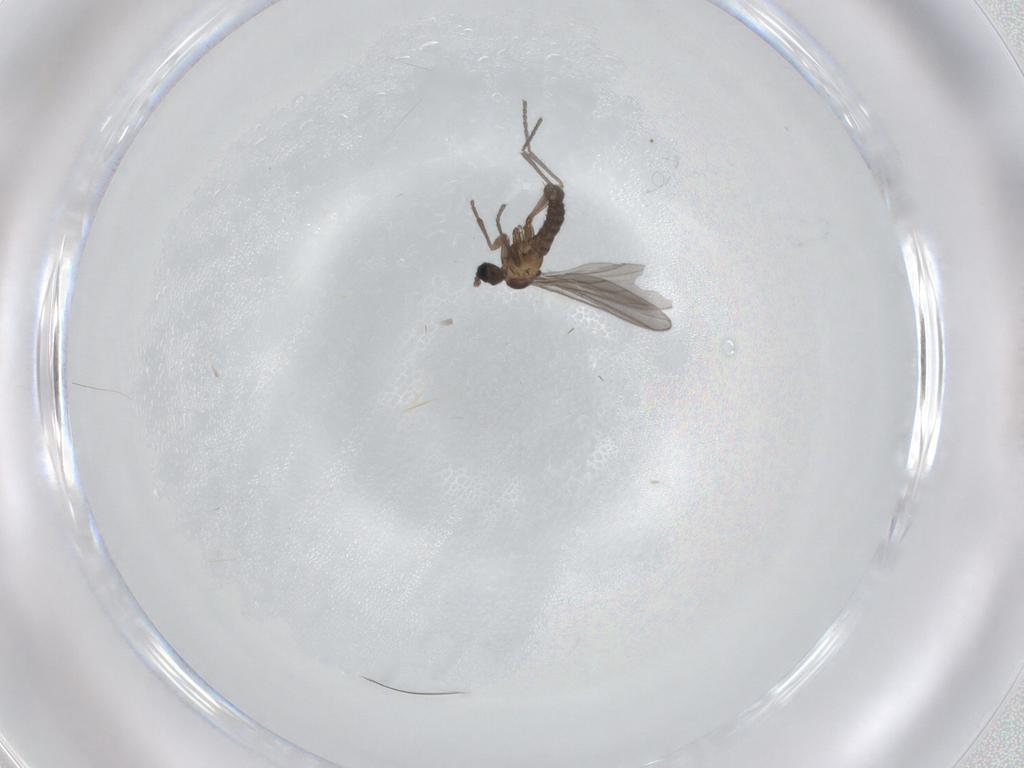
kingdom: Animalia
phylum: Arthropoda
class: Insecta
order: Diptera
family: Sciaridae
